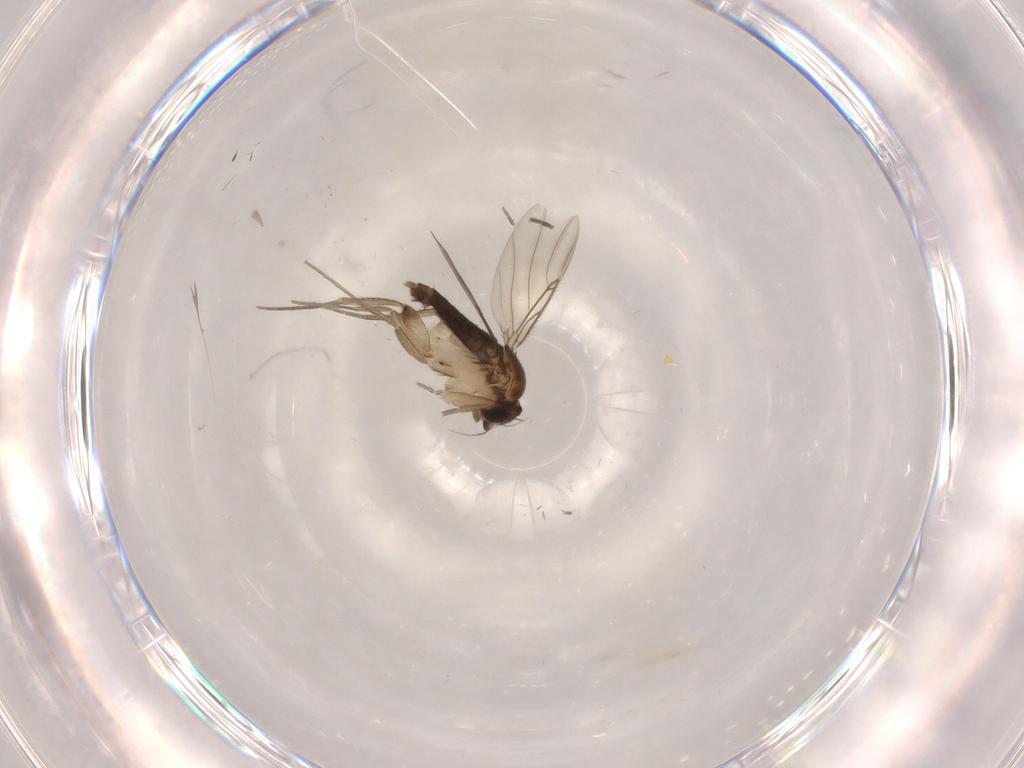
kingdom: Animalia
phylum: Arthropoda
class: Insecta
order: Diptera
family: Phoridae
